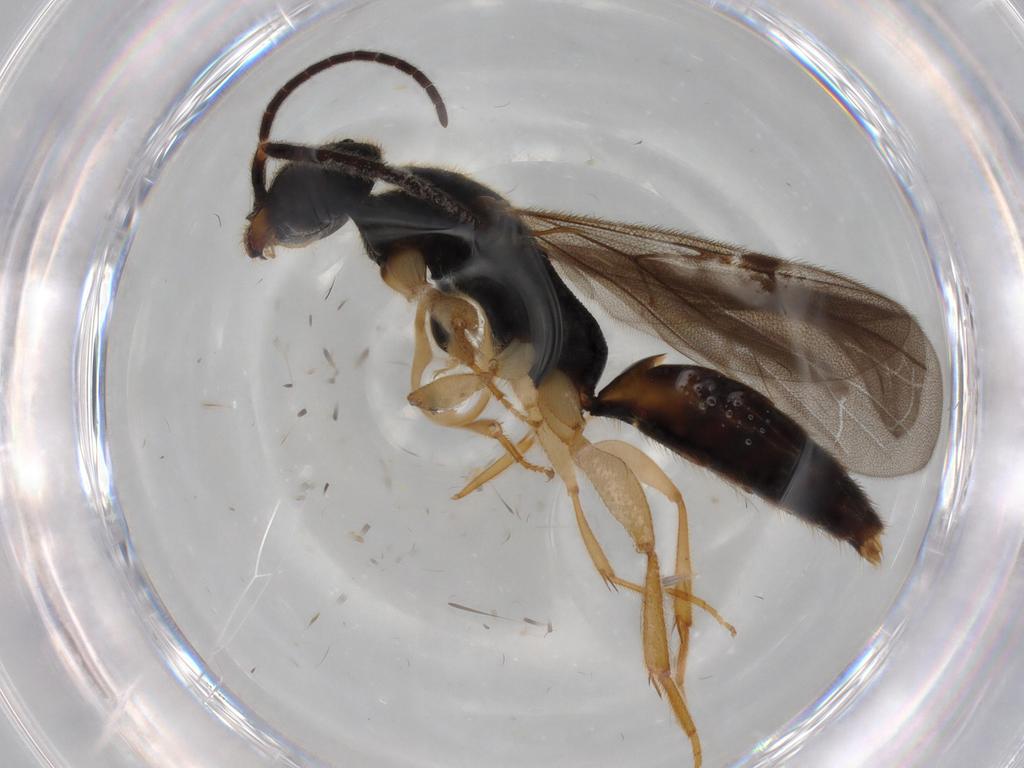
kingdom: Animalia
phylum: Arthropoda
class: Insecta
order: Hymenoptera
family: Bethylidae
